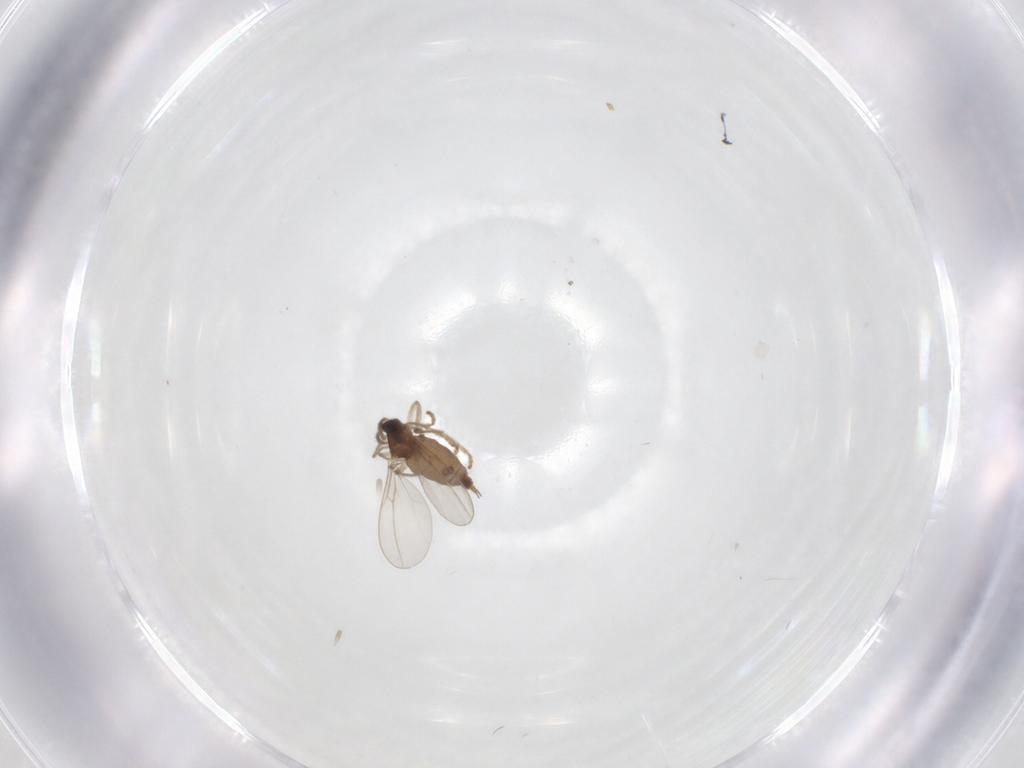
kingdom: Animalia
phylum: Arthropoda
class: Insecta
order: Diptera
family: Cecidomyiidae
